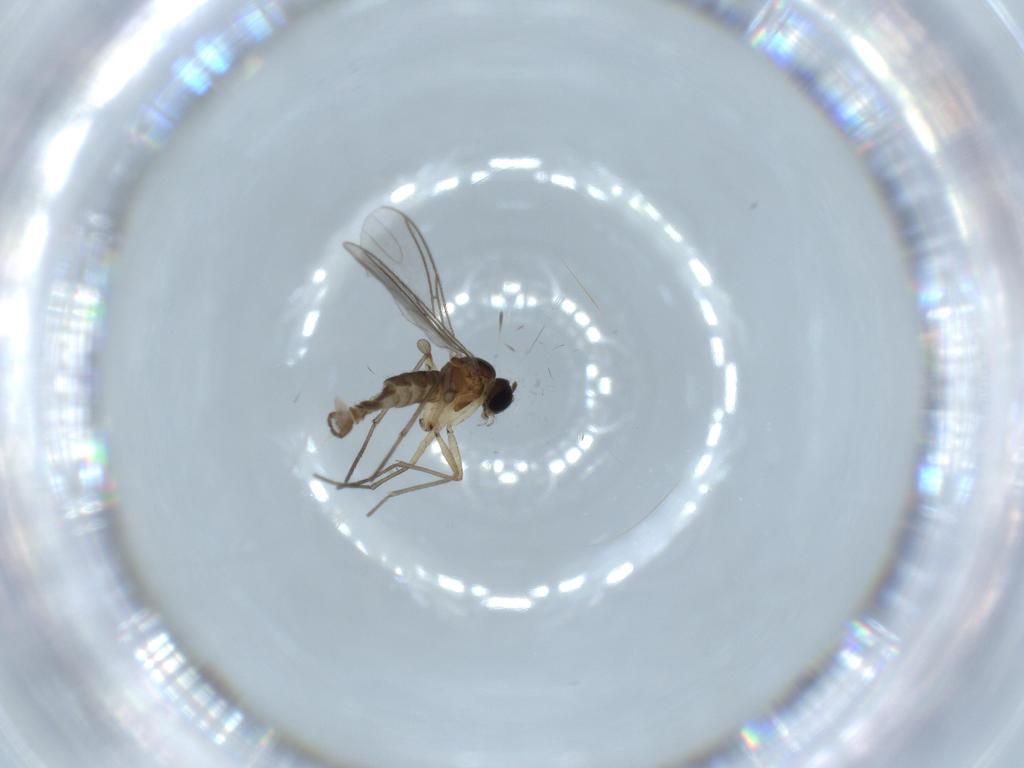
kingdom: Animalia
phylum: Arthropoda
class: Insecta
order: Diptera
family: Sciaridae
